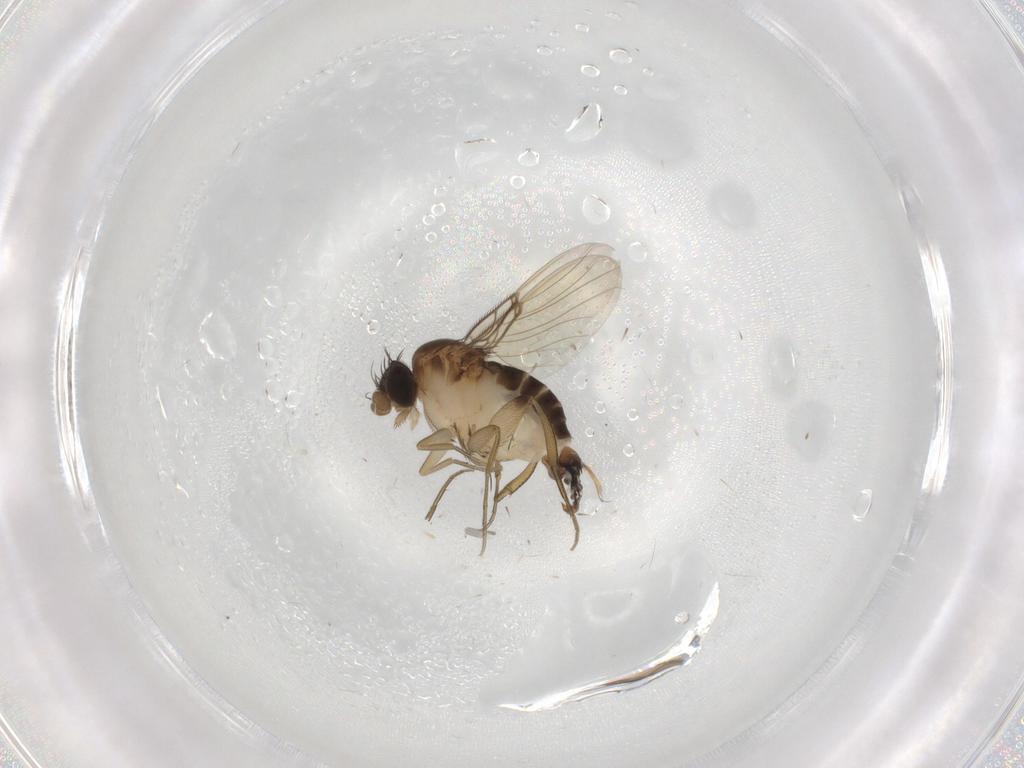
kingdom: Animalia
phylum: Arthropoda
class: Insecta
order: Diptera
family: Phoridae
